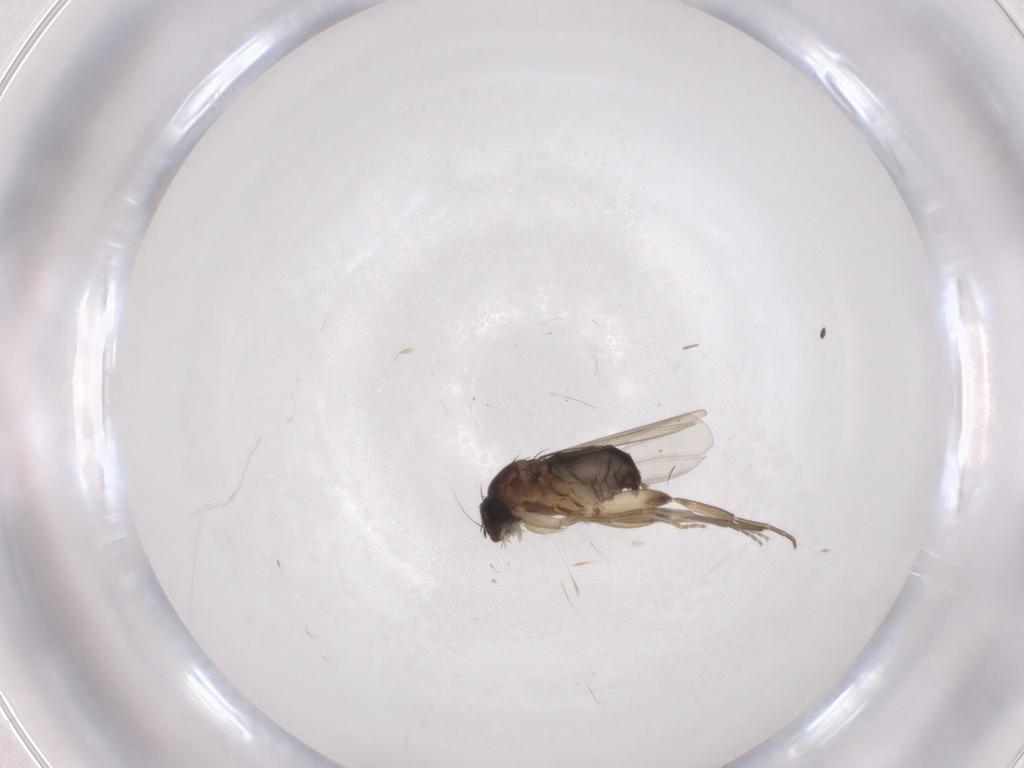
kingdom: Animalia
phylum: Arthropoda
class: Insecta
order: Diptera
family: Phoridae
